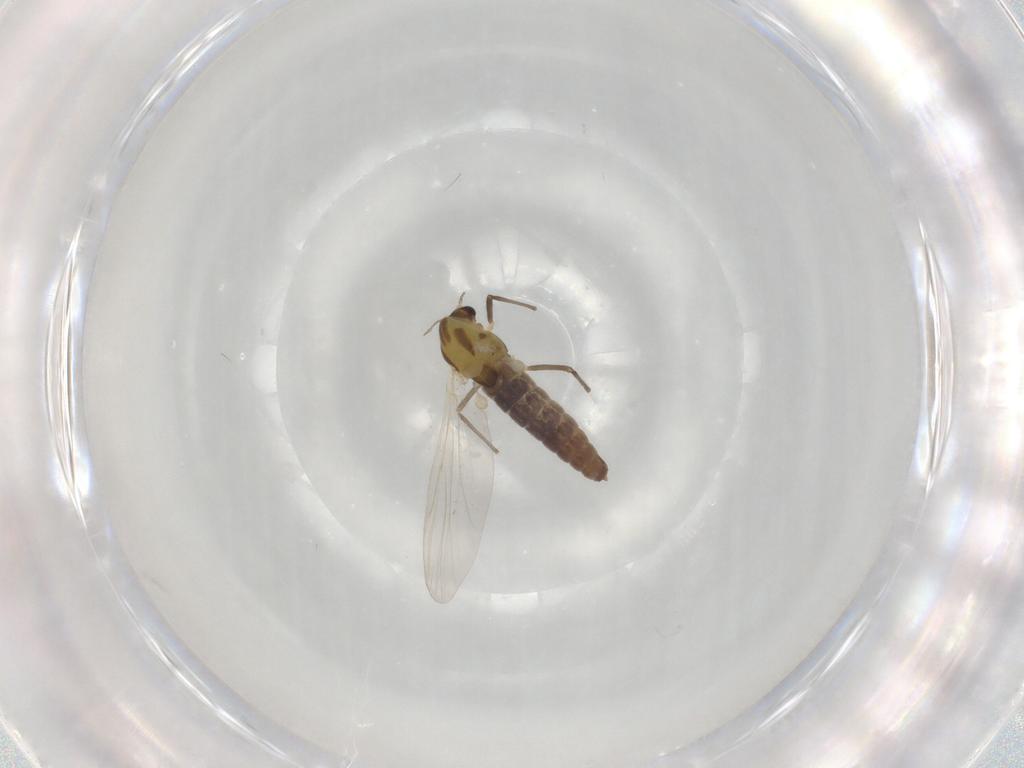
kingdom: Animalia
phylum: Arthropoda
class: Insecta
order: Diptera
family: Chironomidae
